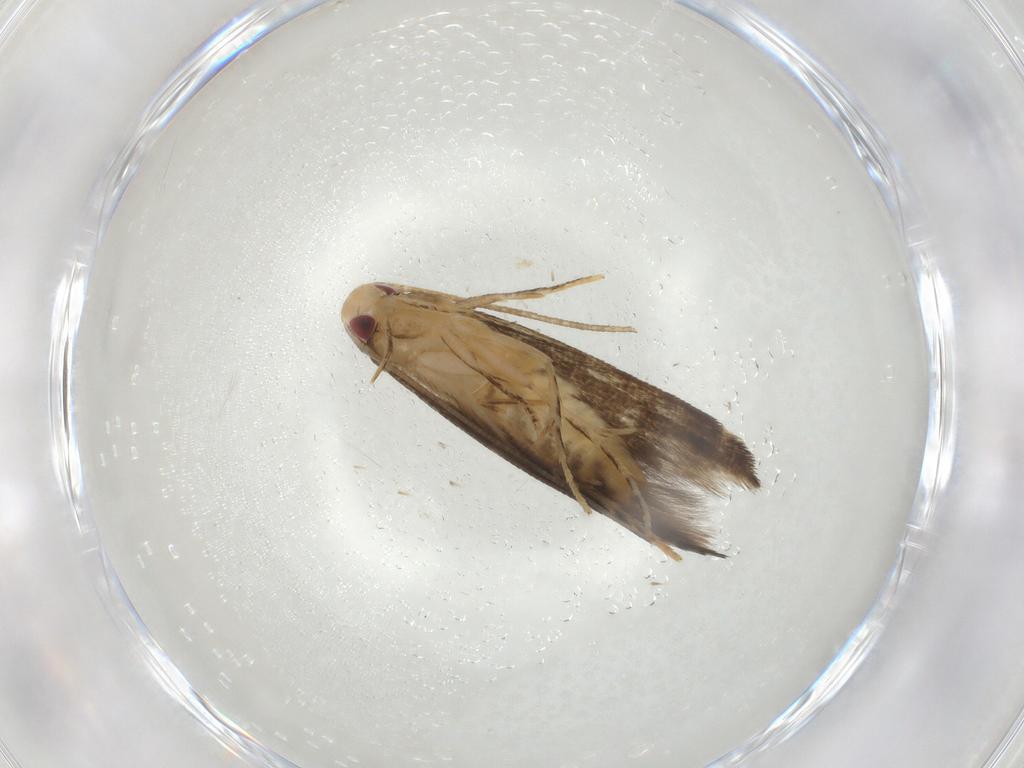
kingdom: Animalia
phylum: Arthropoda
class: Insecta
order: Lepidoptera
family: Momphidae
